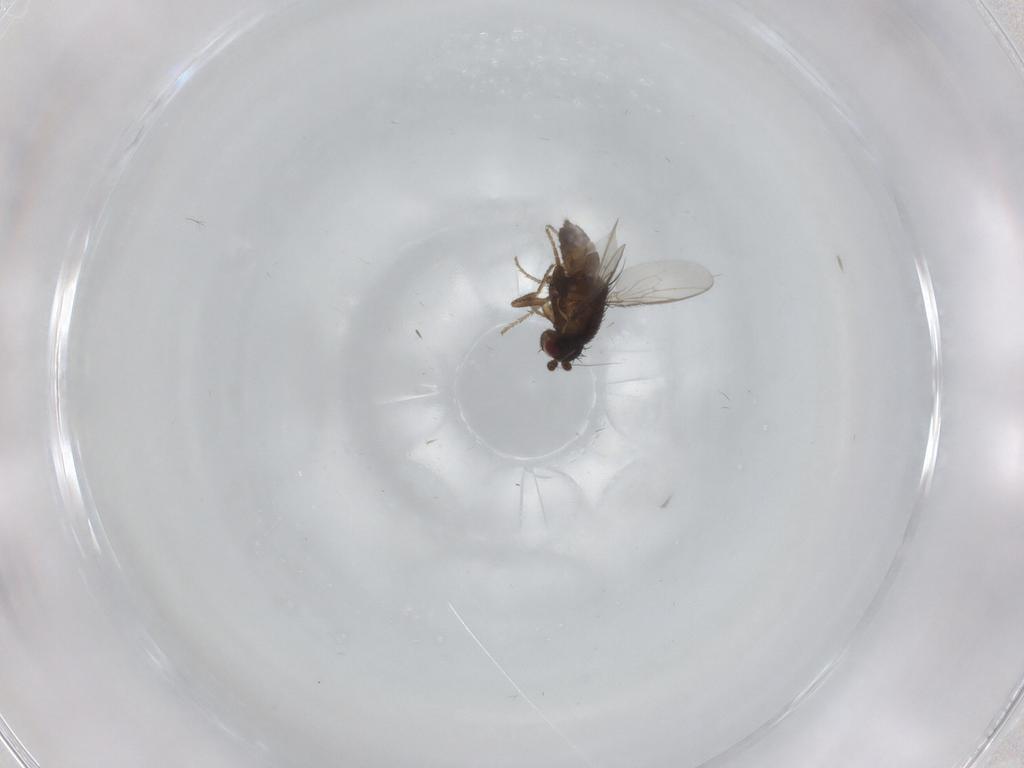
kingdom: Animalia
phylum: Arthropoda
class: Insecta
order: Diptera
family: Sphaeroceridae
